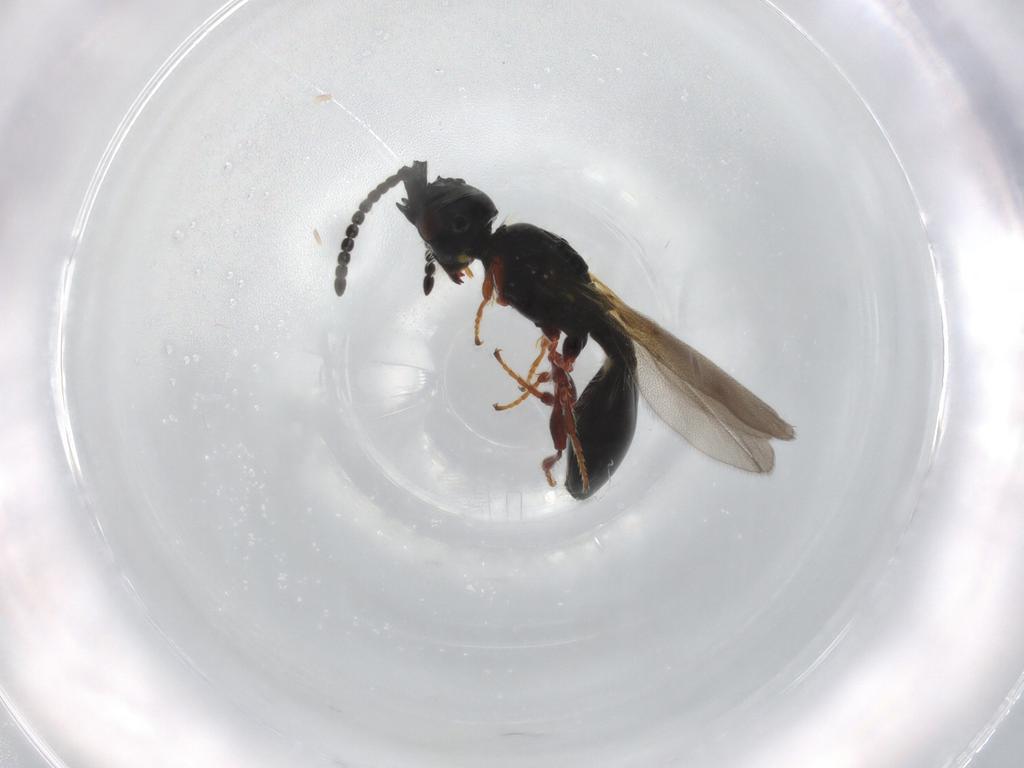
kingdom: Animalia
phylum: Arthropoda
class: Insecta
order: Hymenoptera
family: Diapriidae
